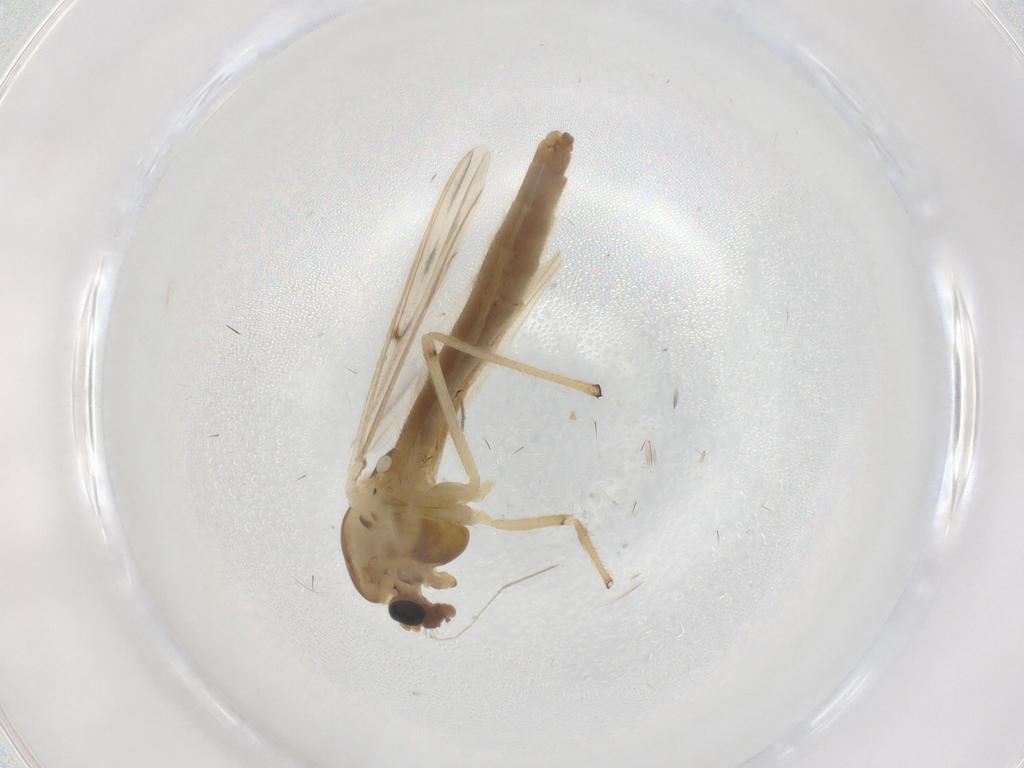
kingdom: Animalia
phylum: Arthropoda
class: Insecta
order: Diptera
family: Chironomidae
